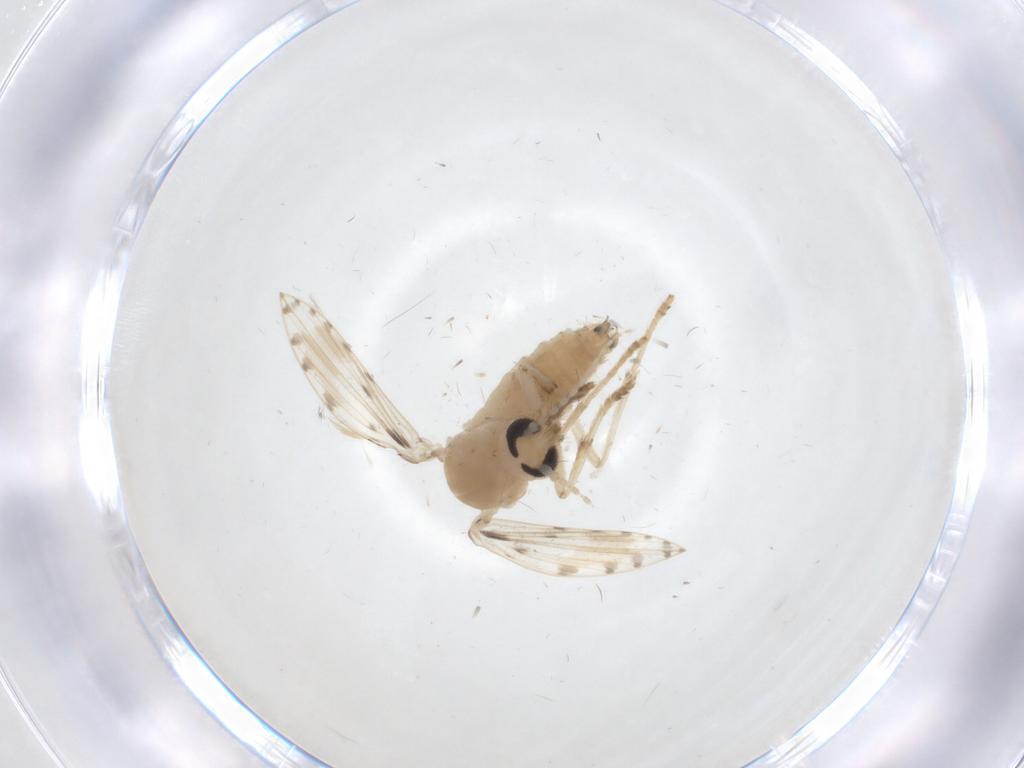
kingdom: Animalia
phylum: Arthropoda
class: Insecta
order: Diptera
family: Psychodidae
